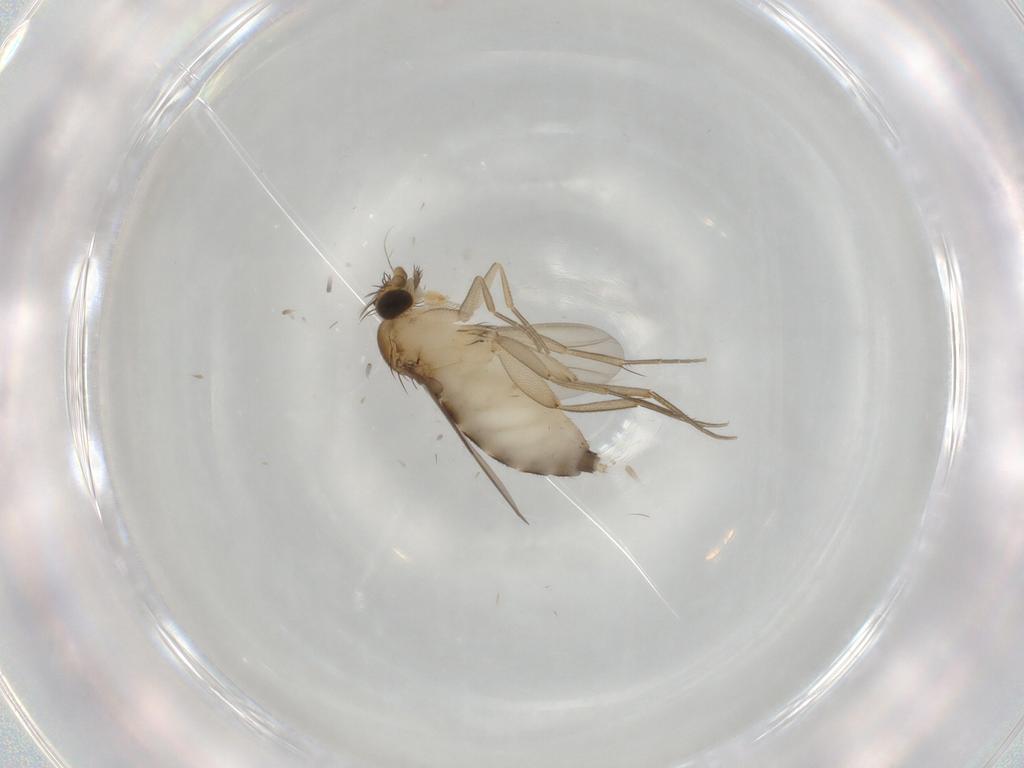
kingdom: Animalia
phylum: Arthropoda
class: Insecta
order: Diptera
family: Phoridae
